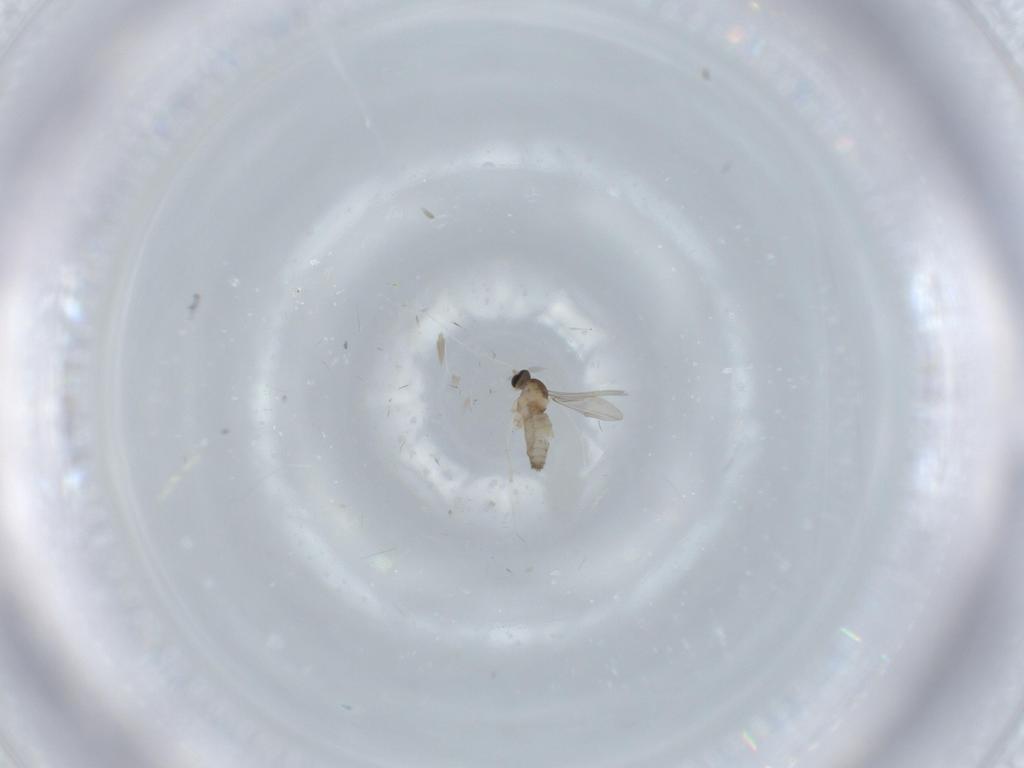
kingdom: Animalia
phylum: Arthropoda
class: Insecta
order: Diptera
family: Cecidomyiidae
